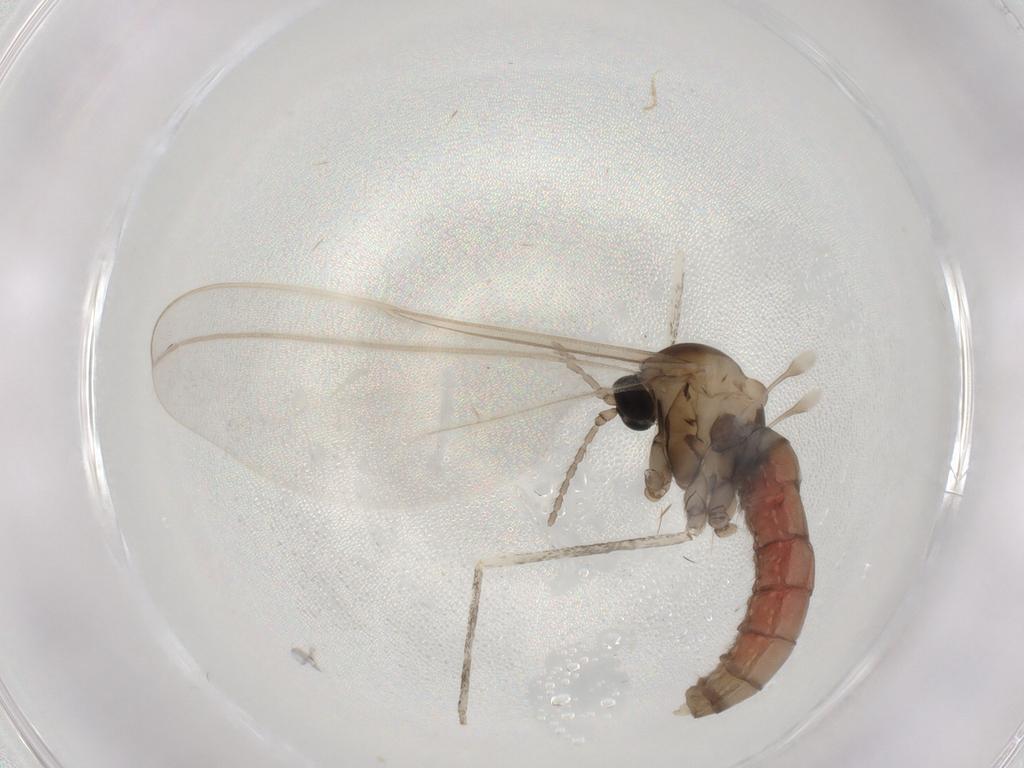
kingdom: Animalia
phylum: Arthropoda
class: Insecta
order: Diptera
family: Cecidomyiidae
